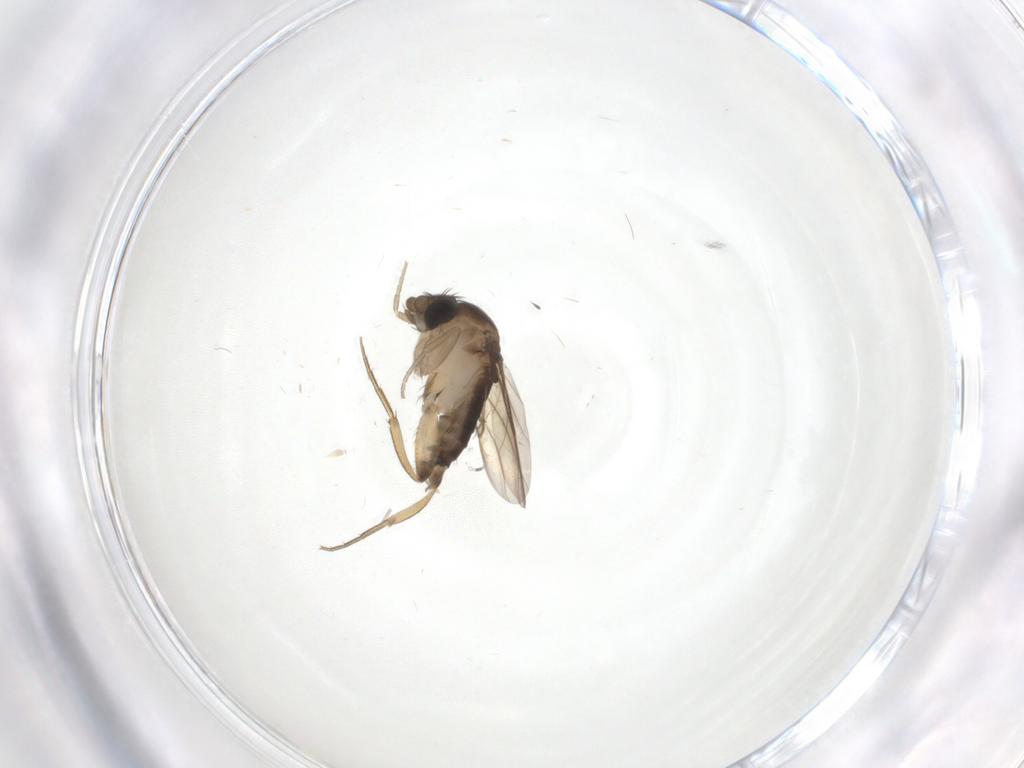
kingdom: Animalia
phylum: Arthropoda
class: Insecta
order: Diptera
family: Phoridae
